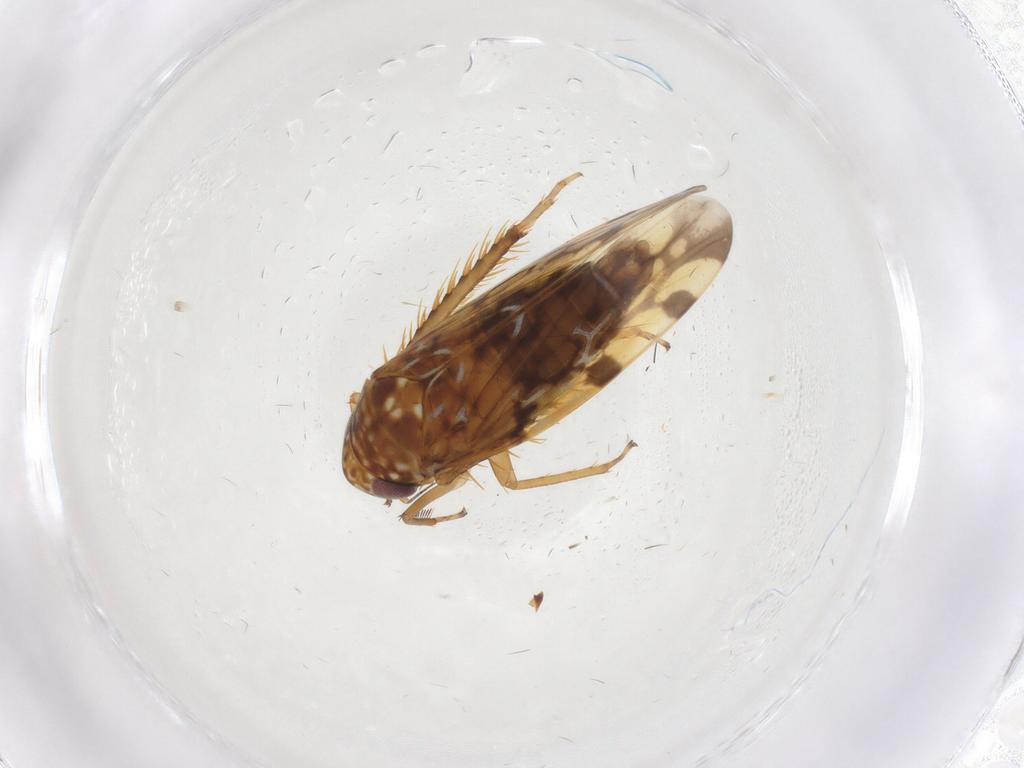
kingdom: Animalia
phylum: Arthropoda
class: Insecta
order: Hemiptera
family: Cicadellidae
